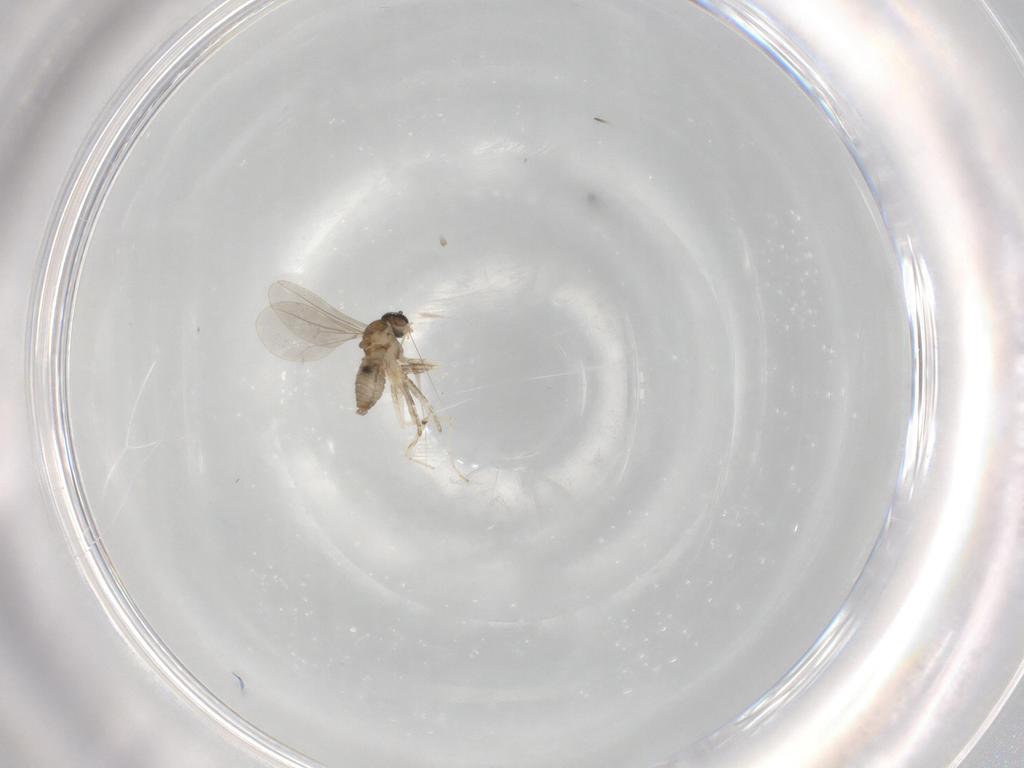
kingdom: Animalia
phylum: Arthropoda
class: Insecta
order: Diptera
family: Cecidomyiidae
